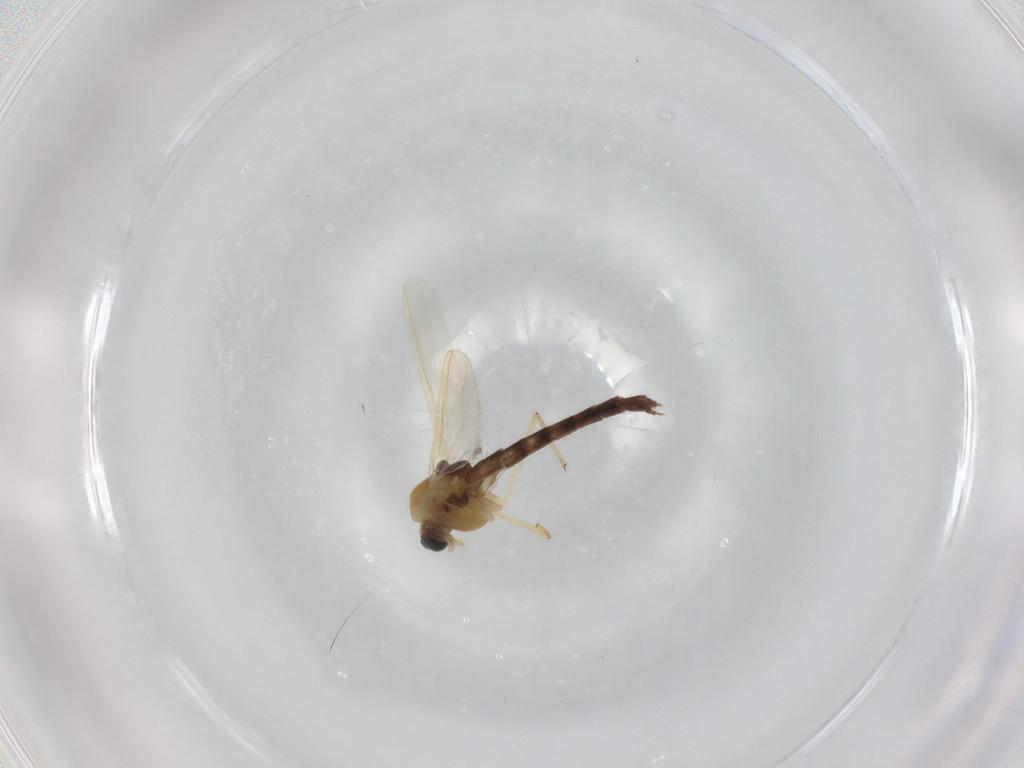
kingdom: Animalia
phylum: Arthropoda
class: Insecta
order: Diptera
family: Chironomidae
